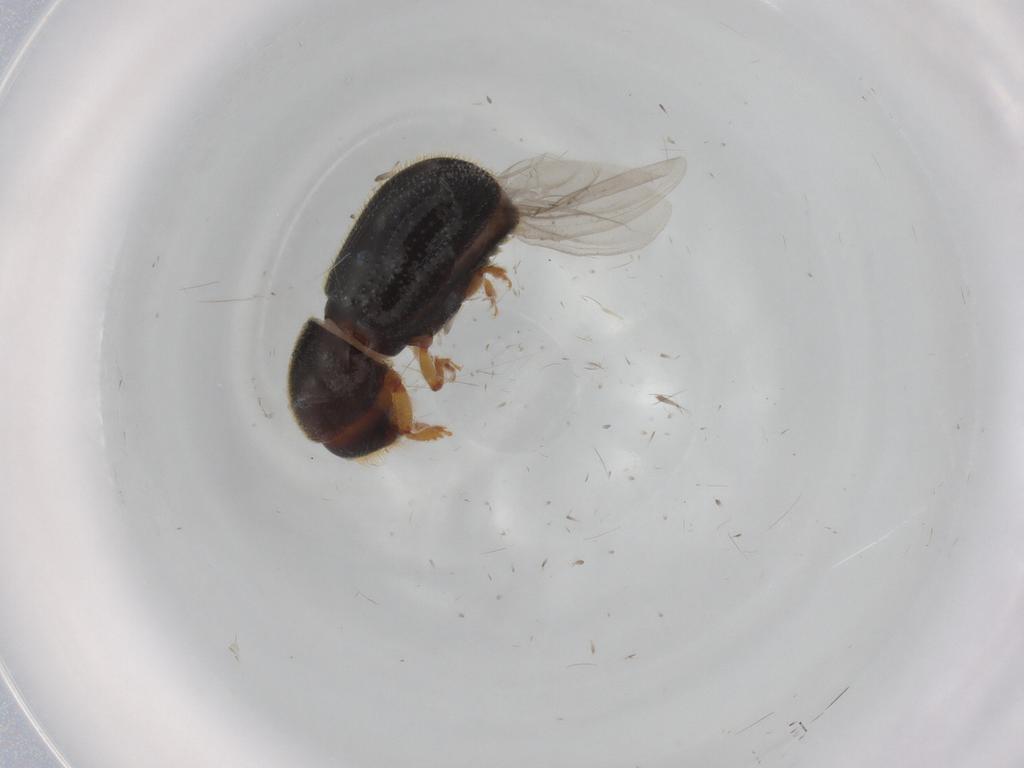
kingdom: Animalia
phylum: Arthropoda
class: Insecta
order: Coleoptera
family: Curculionidae
